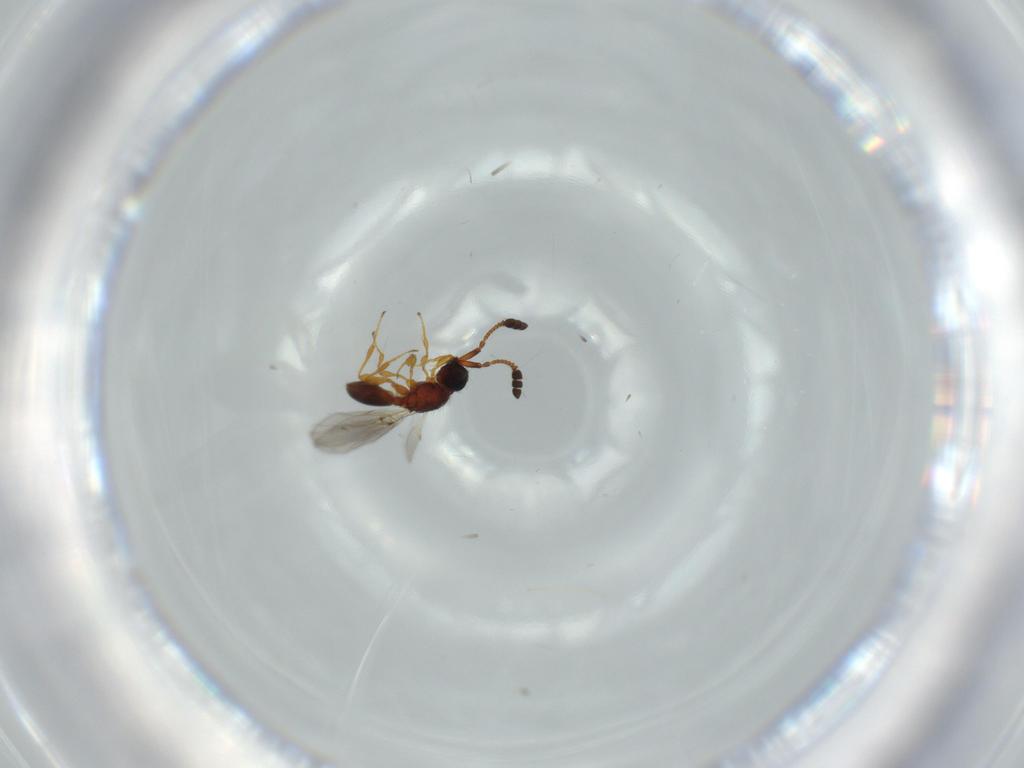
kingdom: Animalia
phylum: Arthropoda
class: Insecta
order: Hymenoptera
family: Diapriidae
